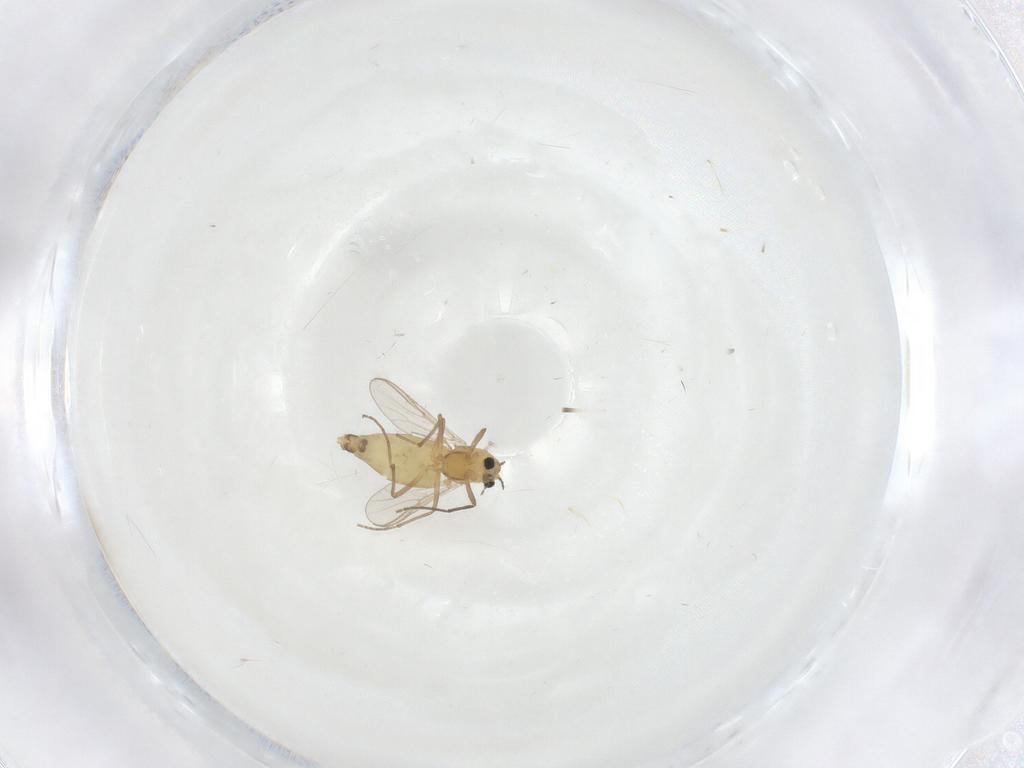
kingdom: Animalia
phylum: Arthropoda
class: Insecta
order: Diptera
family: Chironomidae
